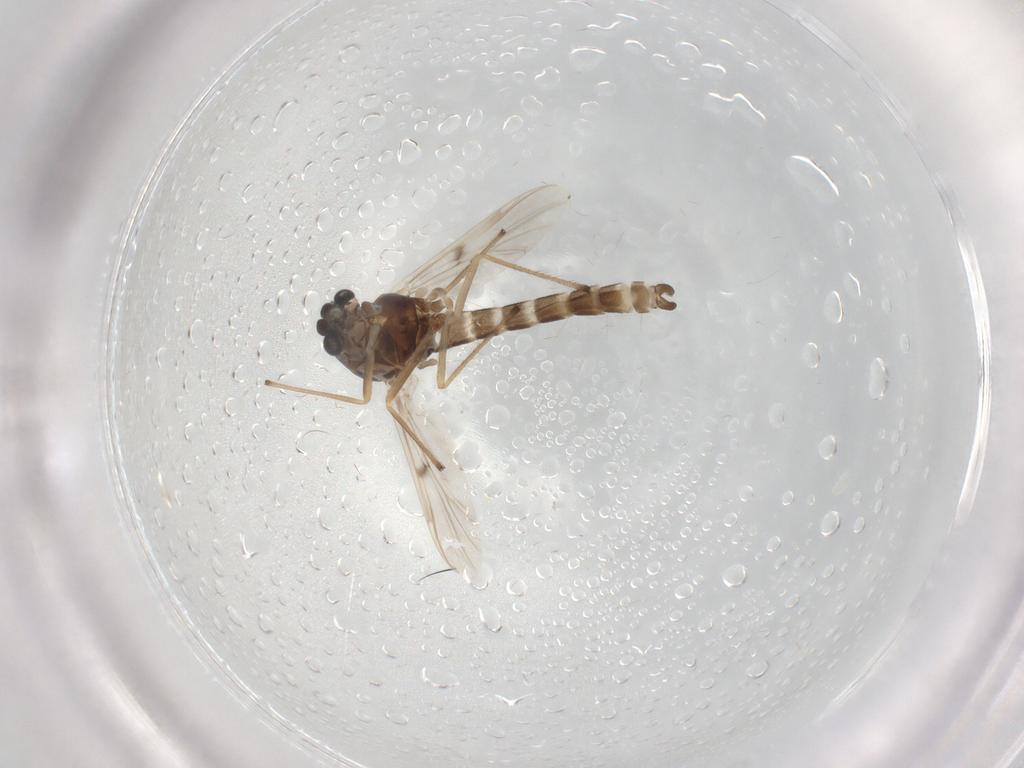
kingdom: Animalia
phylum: Arthropoda
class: Insecta
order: Diptera
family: Chironomidae
